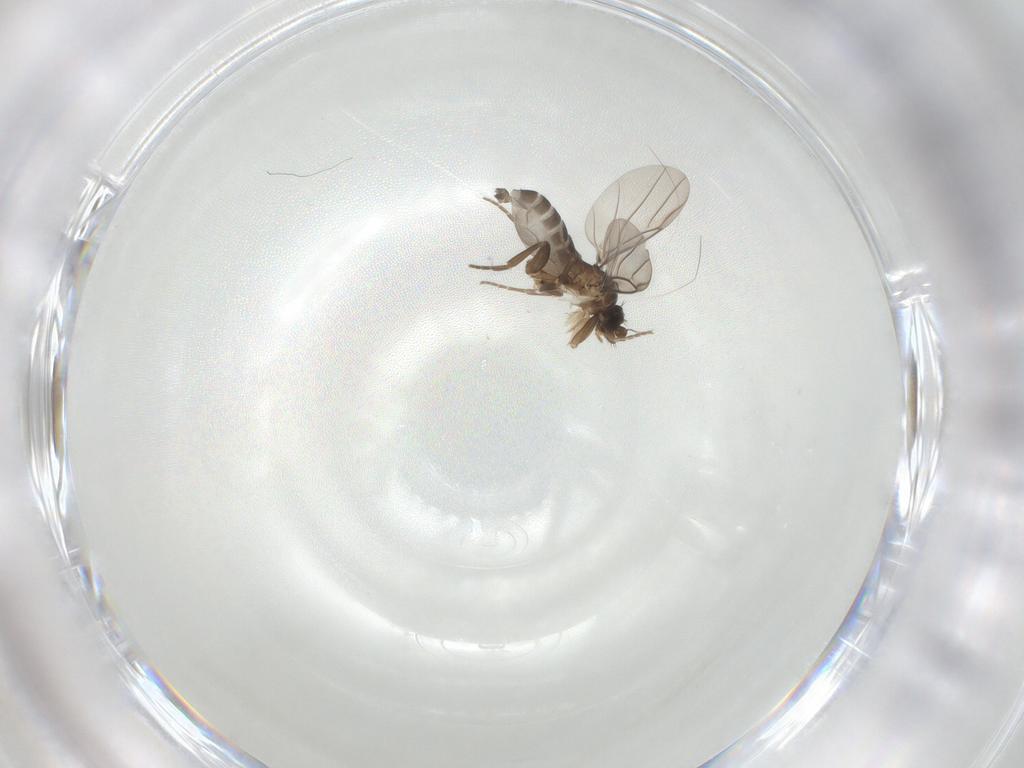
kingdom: Animalia
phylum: Arthropoda
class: Insecta
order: Diptera
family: Phoridae
